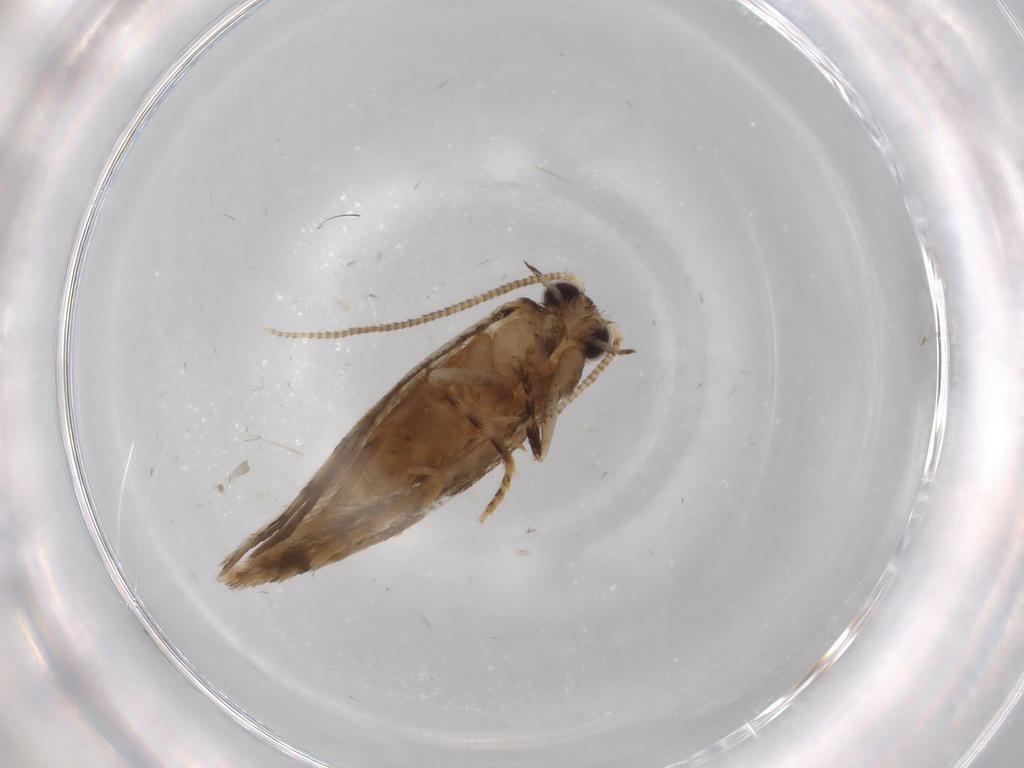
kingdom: Animalia
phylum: Arthropoda
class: Insecta
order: Lepidoptera
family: Tineidae
